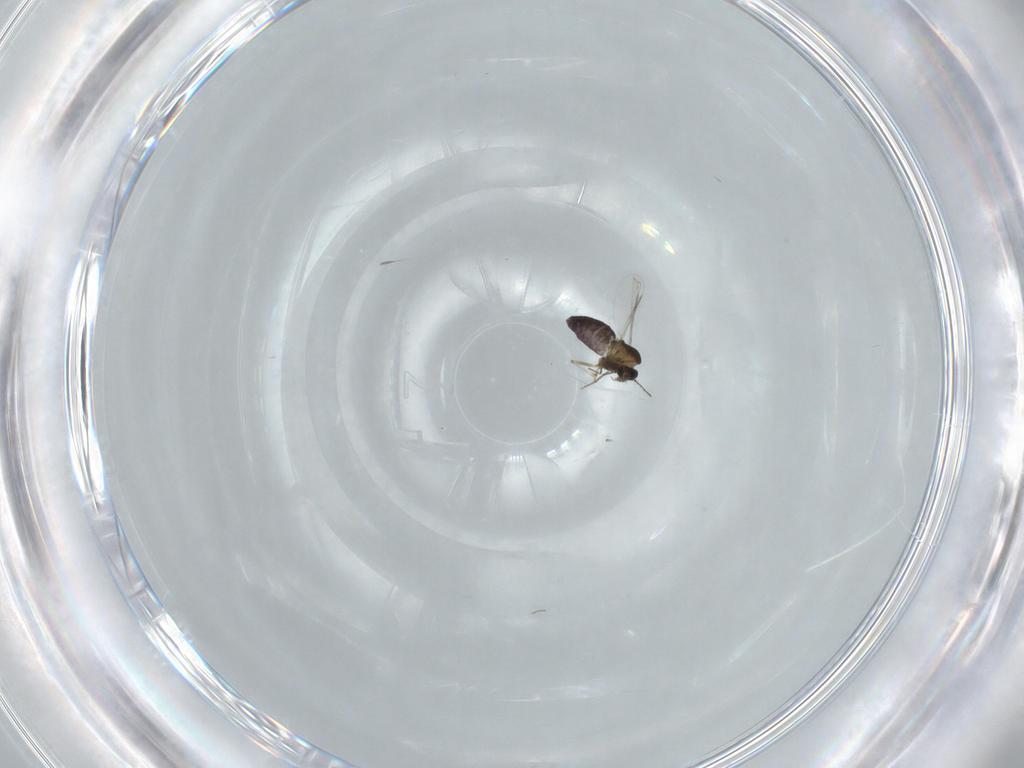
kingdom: Animalia
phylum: Arthropoda
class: Insecta
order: Diptera
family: Chironomidae
